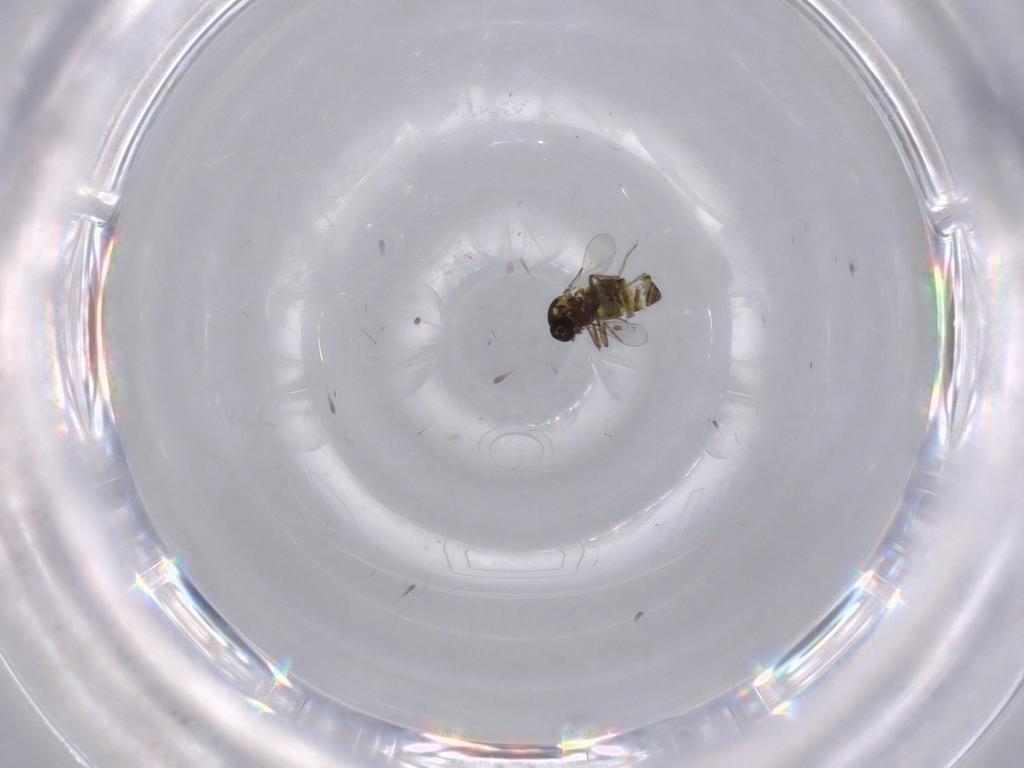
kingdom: Animalia
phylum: Arthropoda
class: Insecta
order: Diptera
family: Ceratopogonidae
